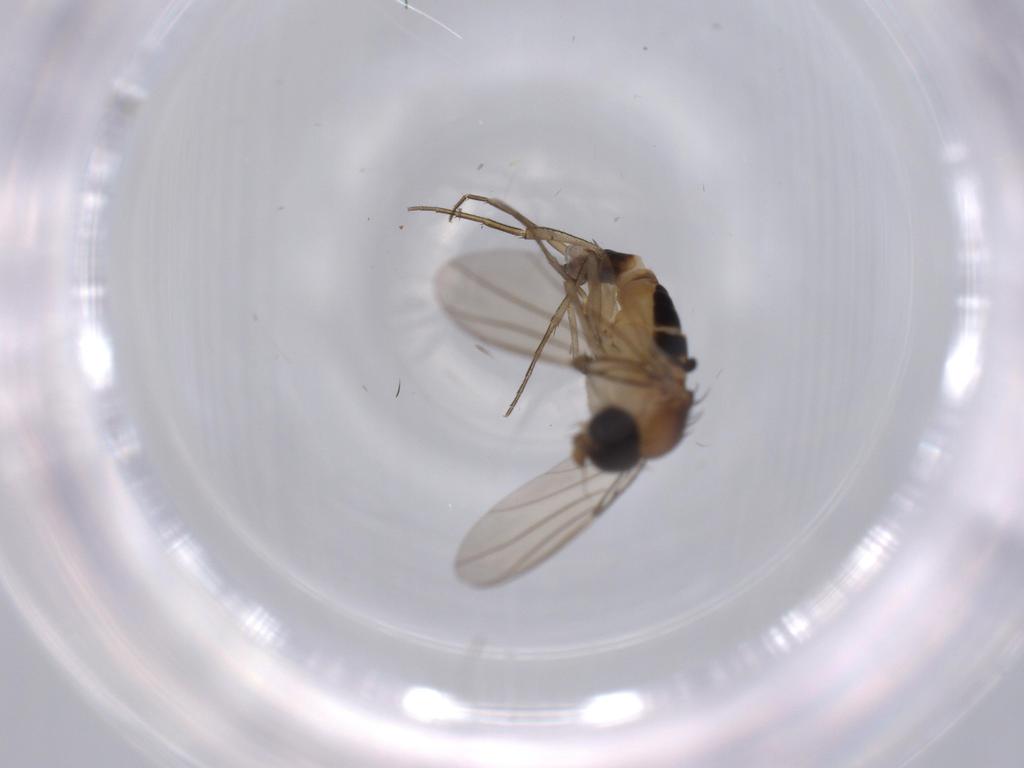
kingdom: Animalia
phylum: Arthropoda
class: Insecta
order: Diptera
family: Phoridae
